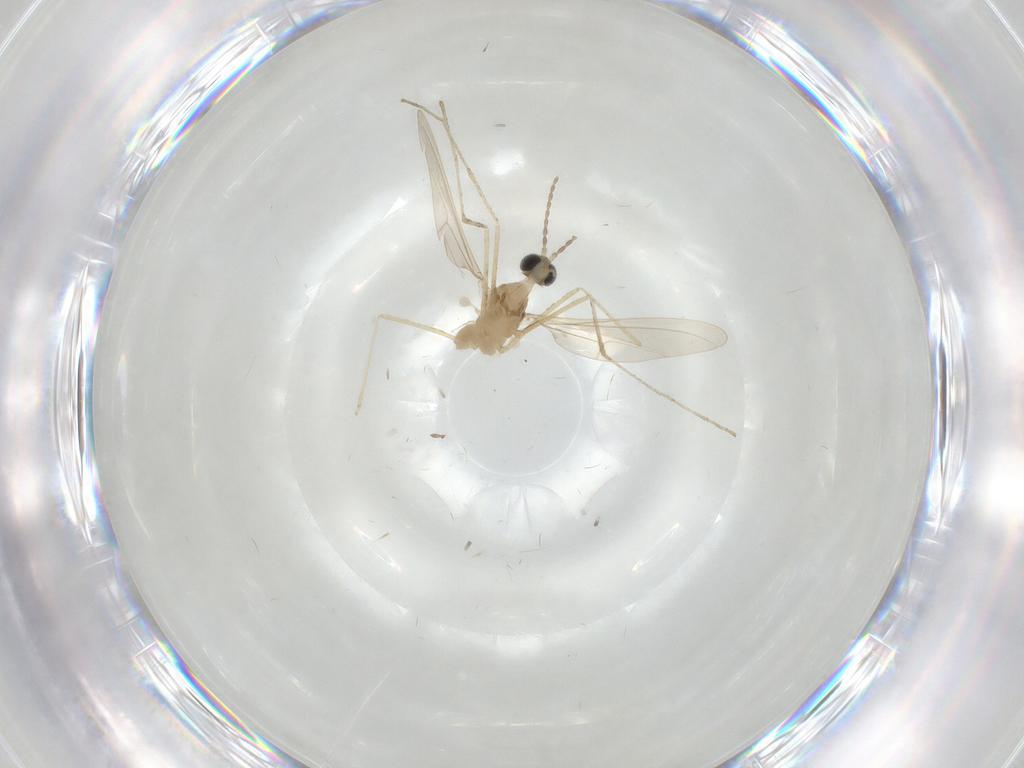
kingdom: Animalia
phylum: Arthropoda
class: Insecta
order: Diptera
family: Cecidomyiidae
